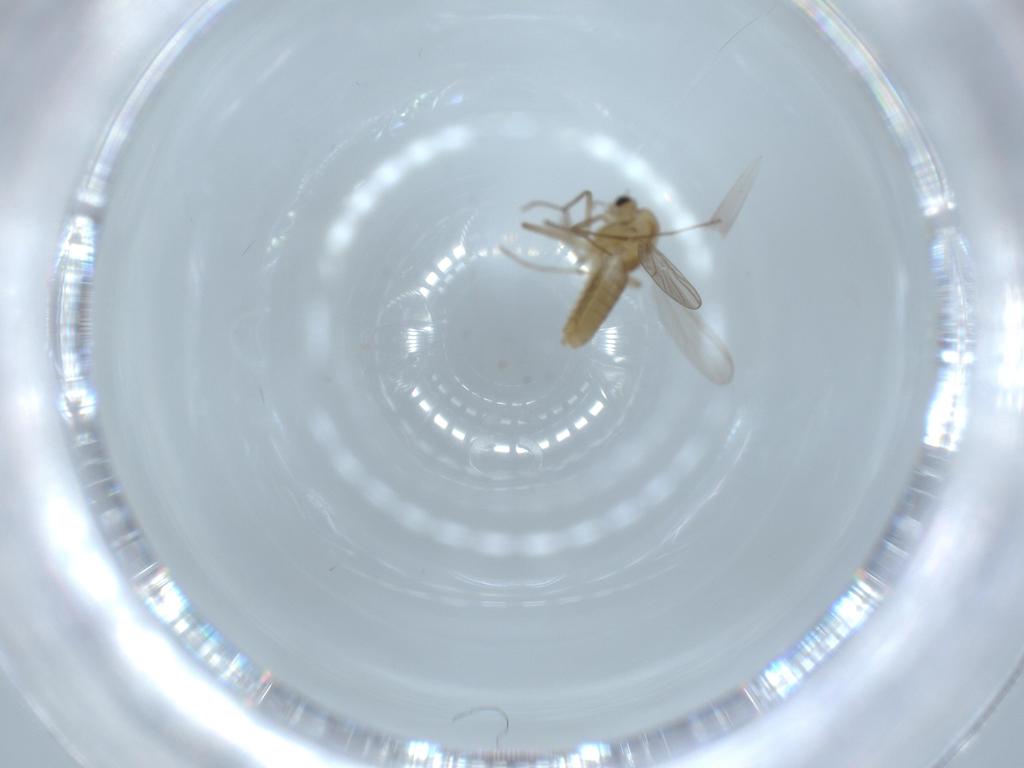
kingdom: Animalia
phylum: Arthropoda
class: Insecta
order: Diptera
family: Chironomidae
